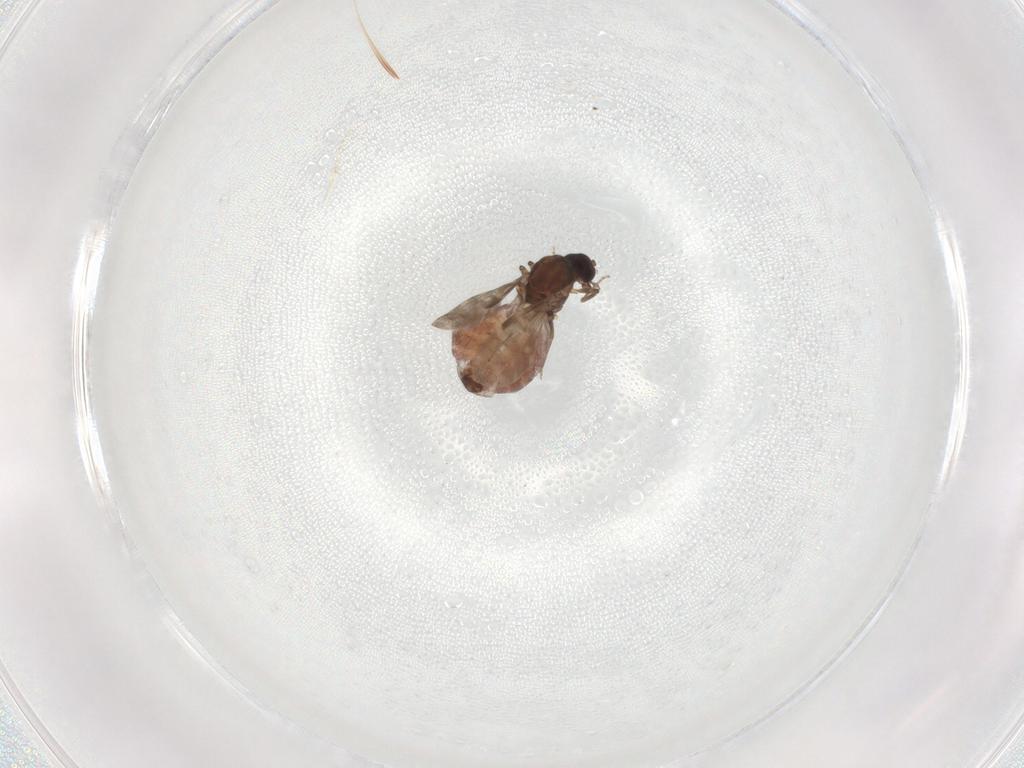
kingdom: Animalia
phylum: Arthropoda
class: Insecta
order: Diptera
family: Ceratopogonidae
